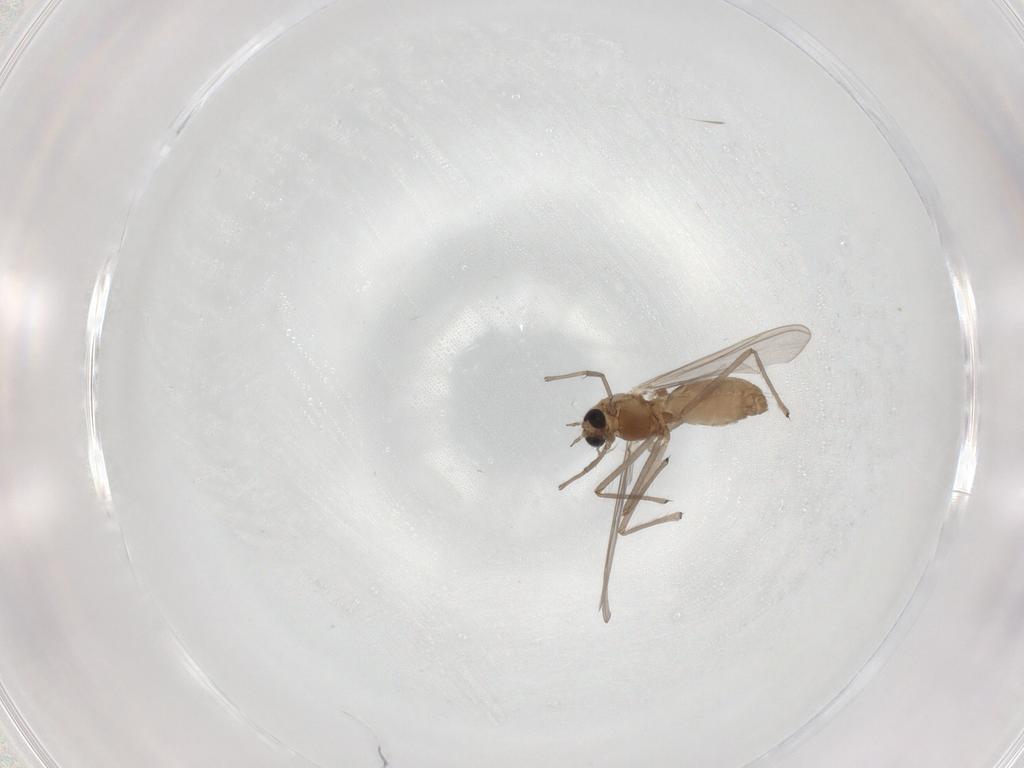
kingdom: Animalia
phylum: Arthropoda
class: Insecta
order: Diptera
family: Chironomidae
